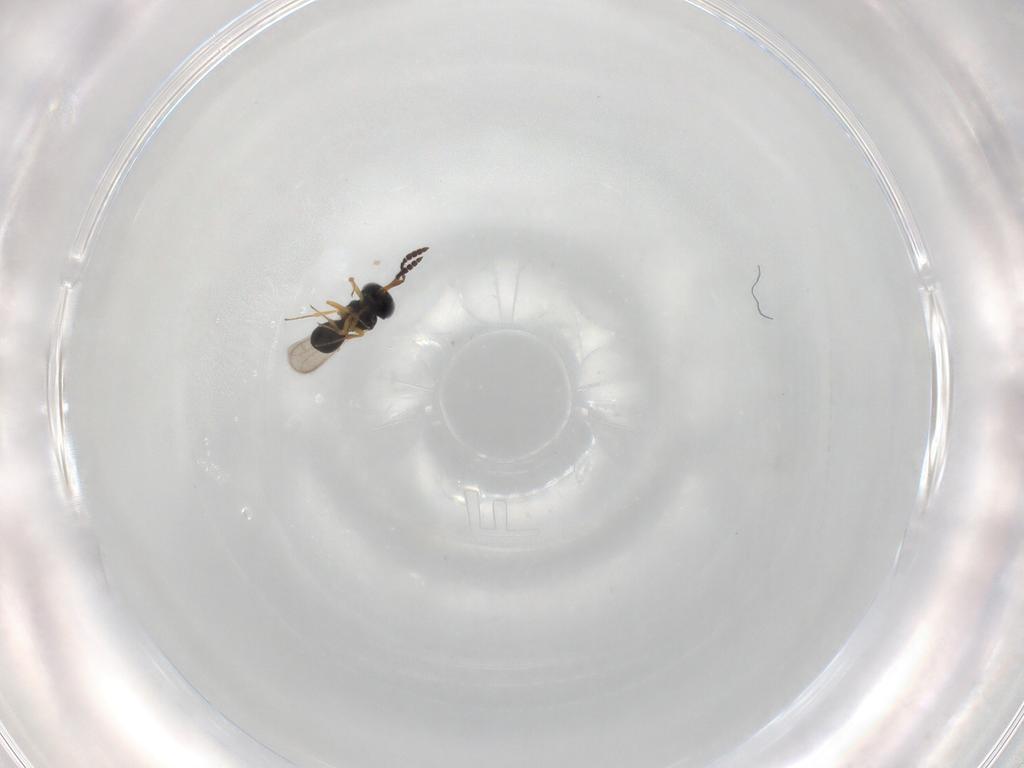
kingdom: Animalia
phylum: Arthropoda
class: Insecta
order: Hymenoptera
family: Scelionidae
